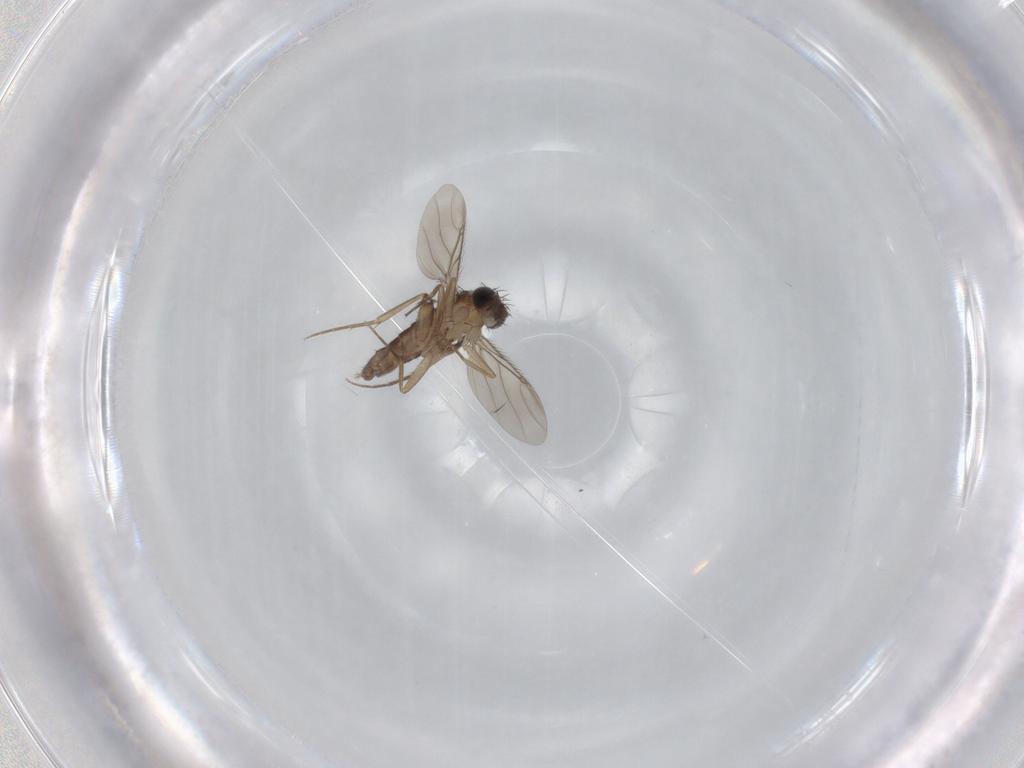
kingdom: Animalia
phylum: Arthropoda
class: Insecta
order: Diptera
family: Phoridae
